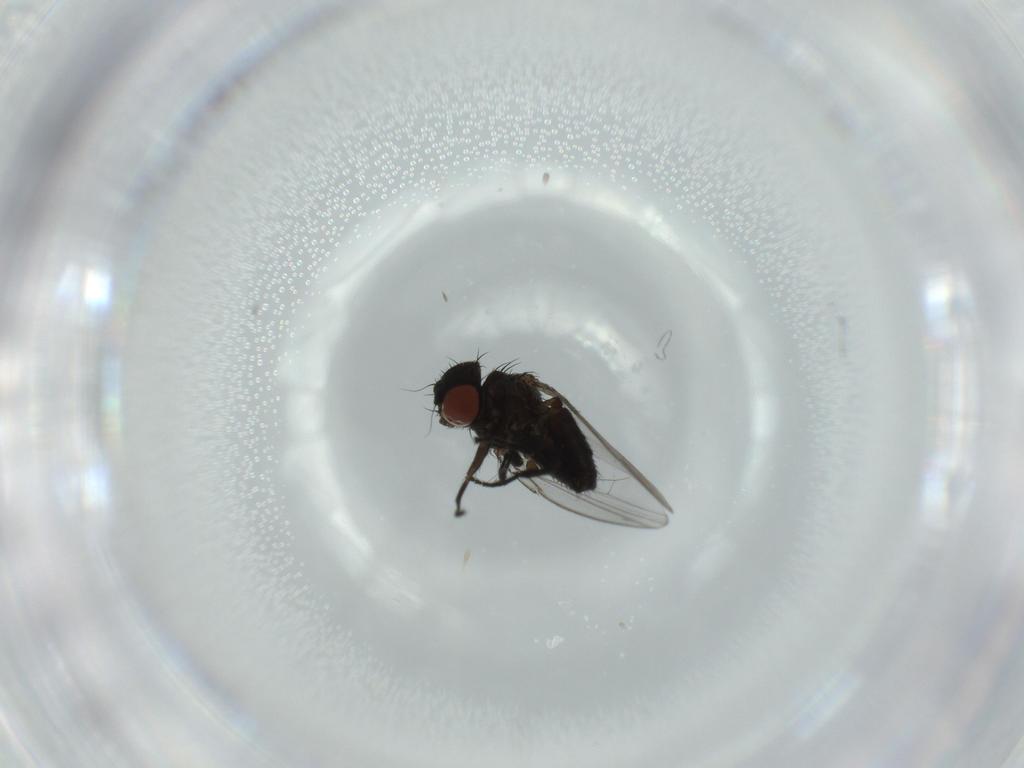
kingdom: Animalia
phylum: Arthropoda
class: Insecta
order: Diptera
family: Milichiidae
